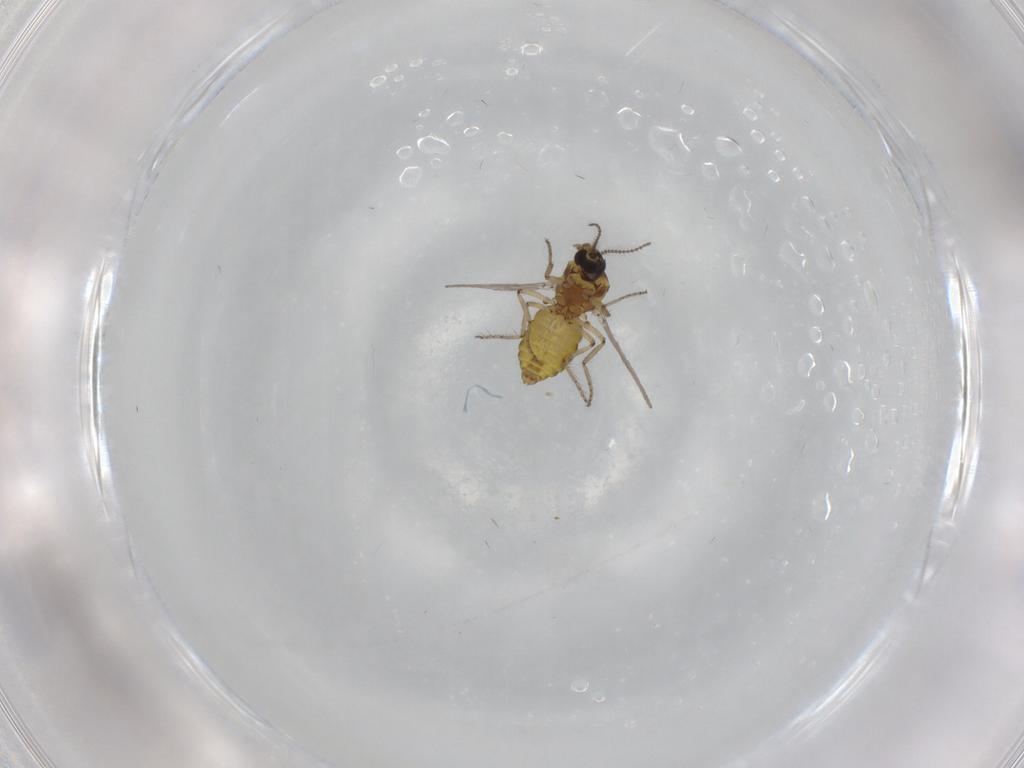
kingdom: Animalia
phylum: Arthropoda
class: Insecta
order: Diptera
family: Ceratopogonidae
